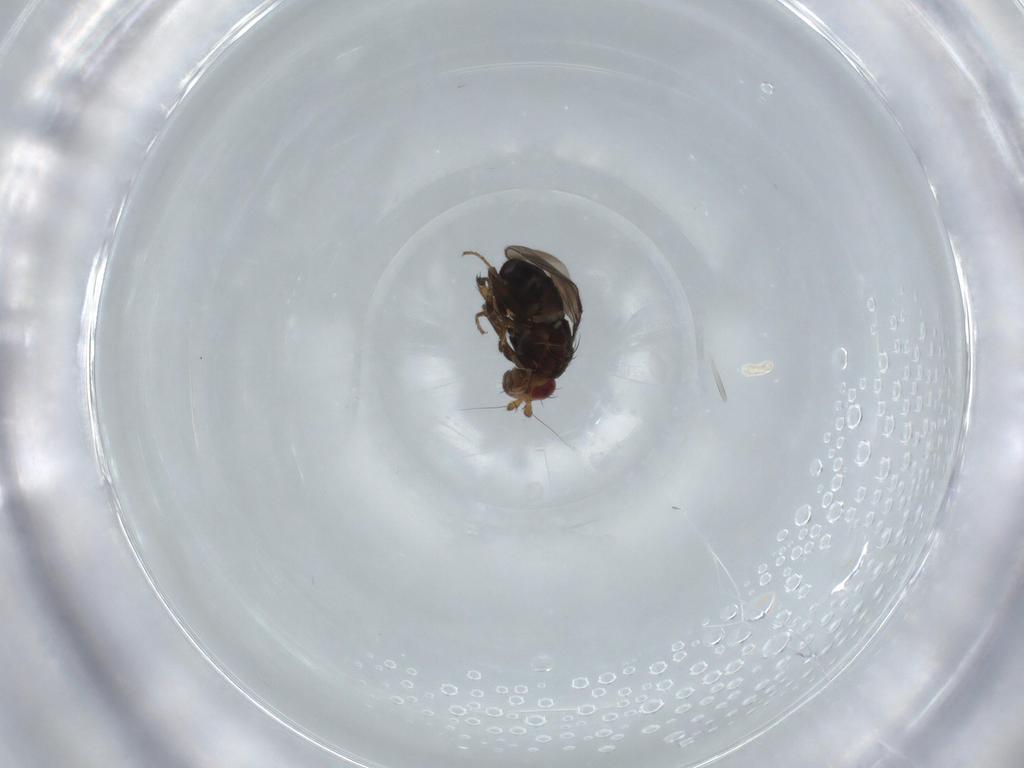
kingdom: Animalia
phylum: Arthropoda
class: Insecta
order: Diptera
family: Sphaeroceridae
